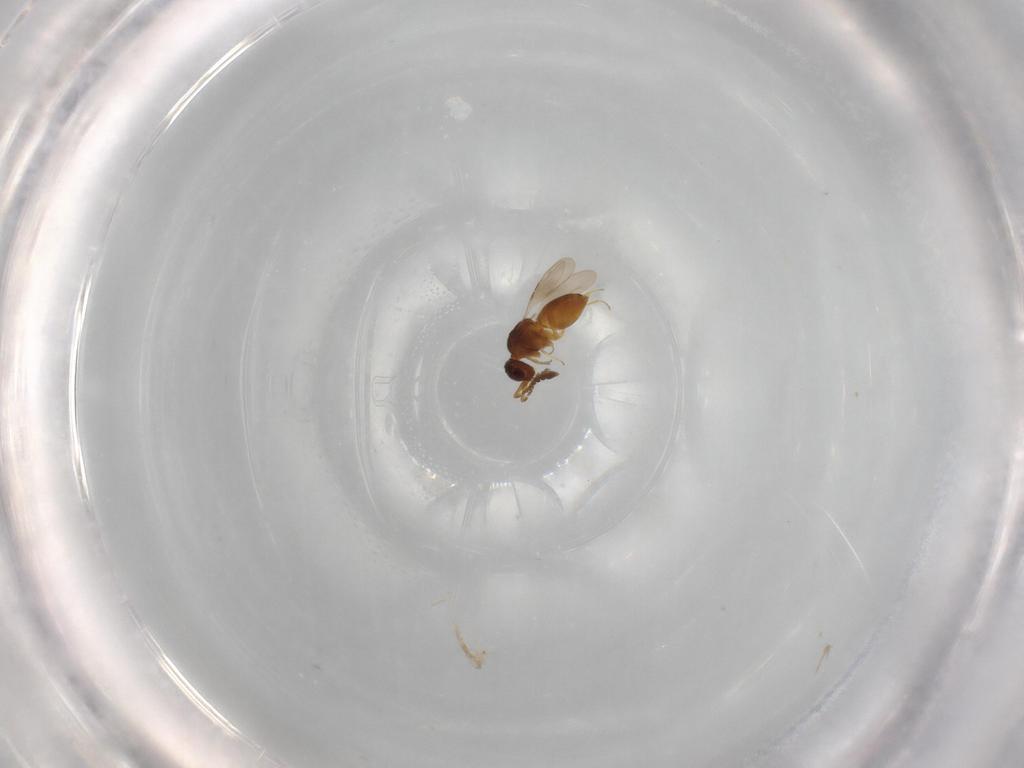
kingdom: Animalia
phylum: Arthropoda
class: Insecta
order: Hymenoptera
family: Ceraphronidae
